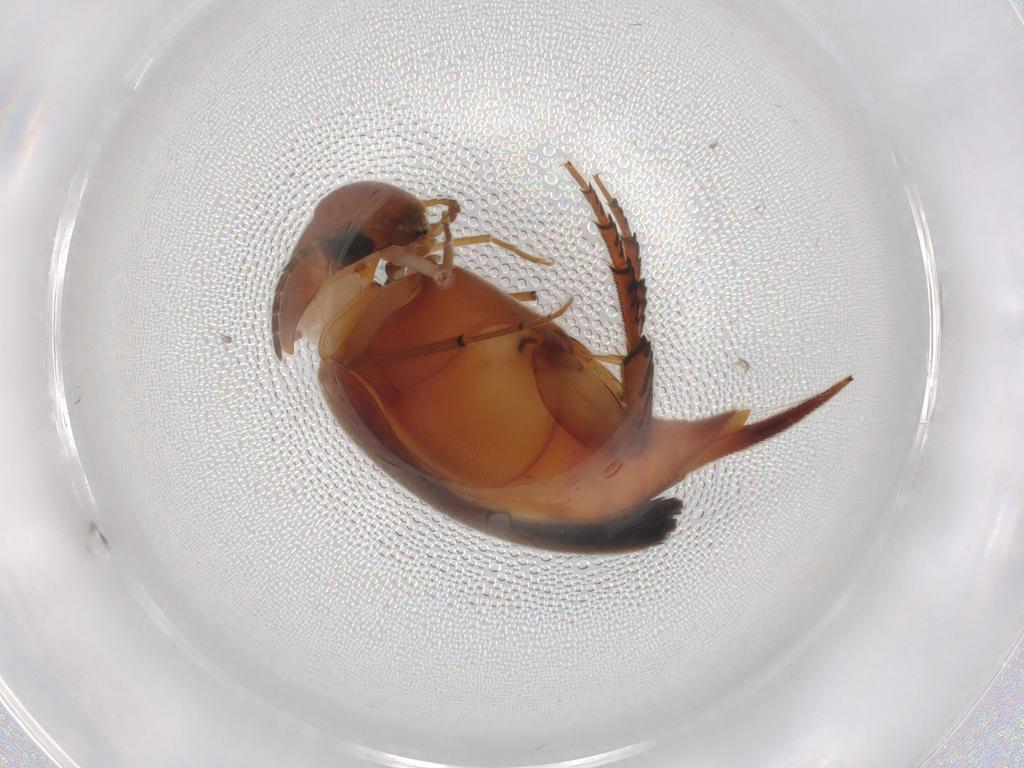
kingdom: Animalia
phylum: Arthropoda
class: Insecta
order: Coleoptera
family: Mordellidae
